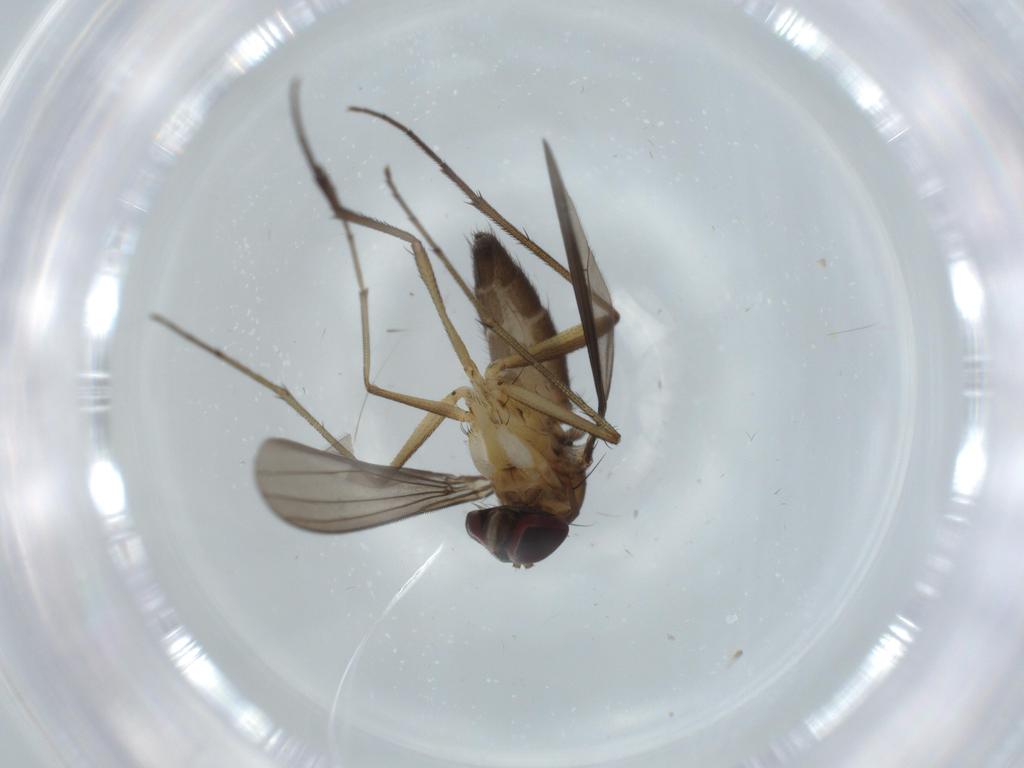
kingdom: Animalia
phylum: Arthropoda
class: Insecta
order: Diptera
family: Dolichopodidae
